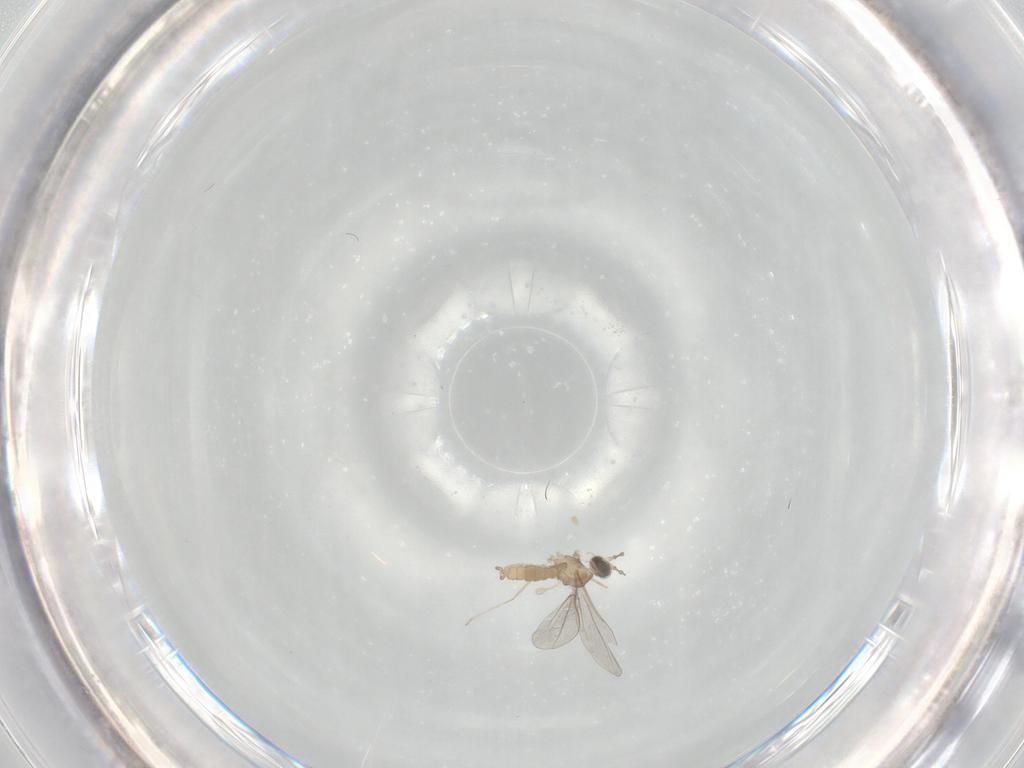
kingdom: Animalia
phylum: Arthropoda
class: Insecta
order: Diptera
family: Cecidomyiidae
